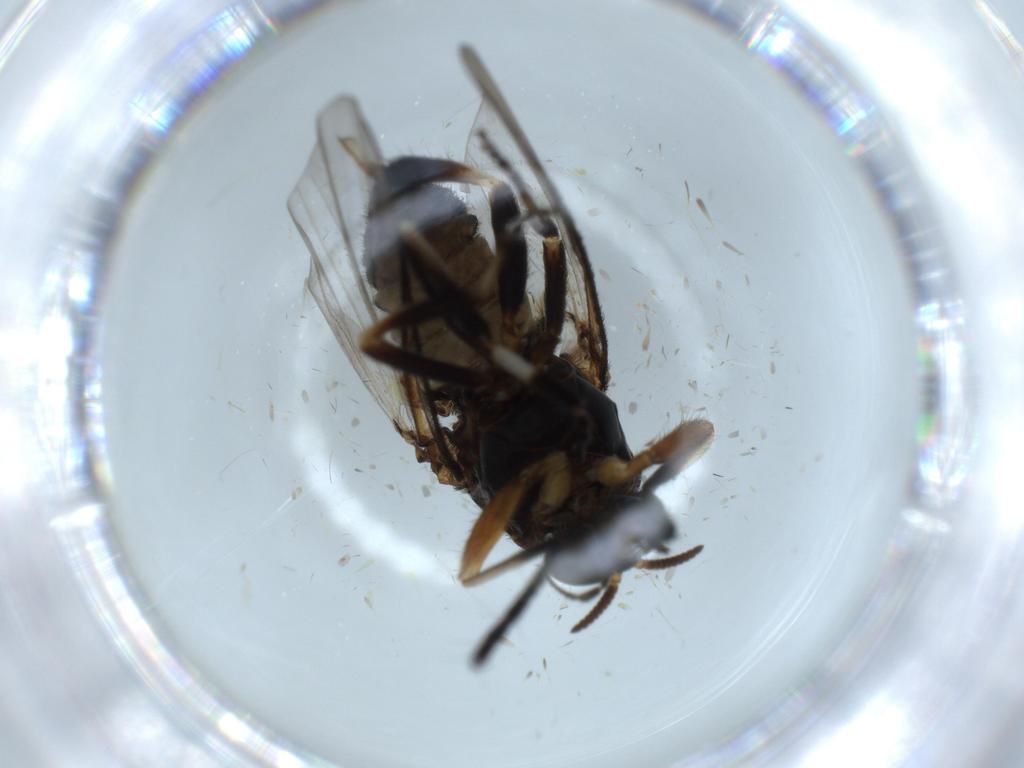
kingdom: Animalia
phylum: Arthropoda
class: Insecta
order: Diptera
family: Simuliidae
